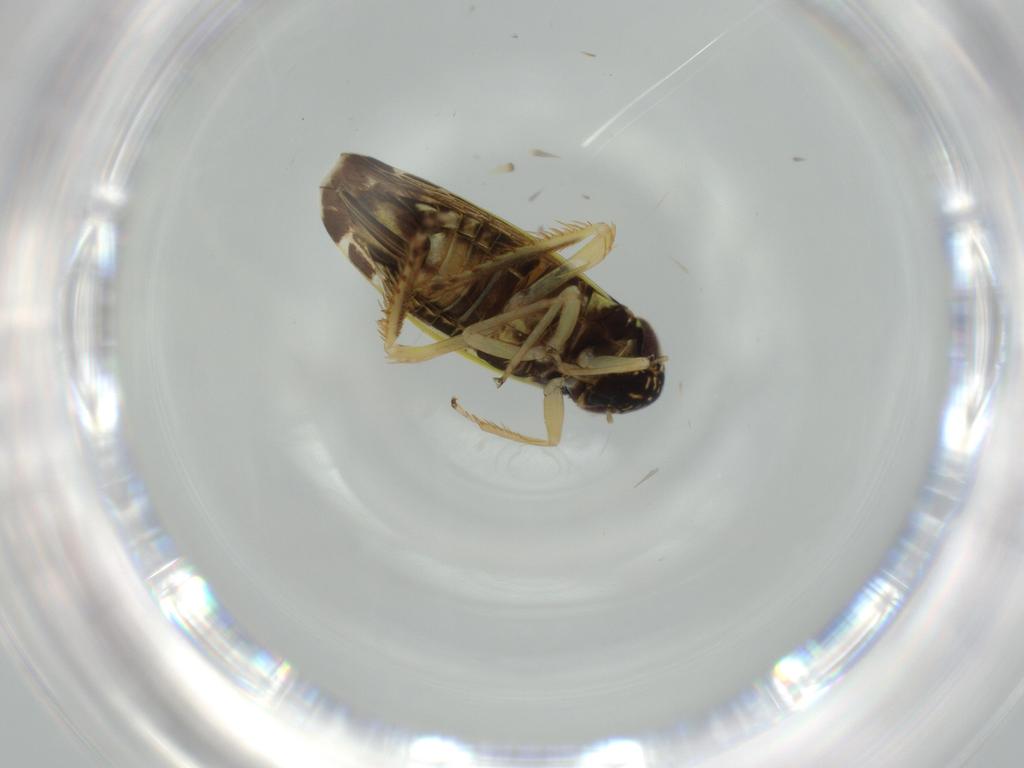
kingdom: Animalia
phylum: Arthropoda
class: Insecta
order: Hemiptera
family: Cicadellidae
